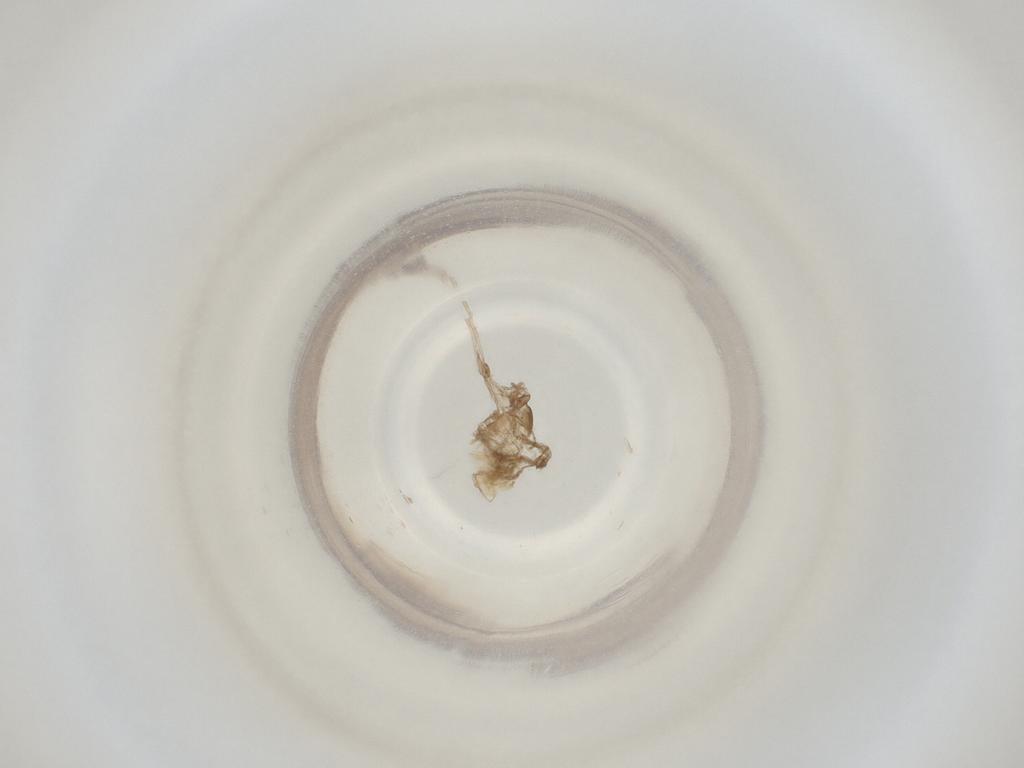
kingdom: Animalia
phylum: Arthropoda
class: Insecta
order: Diptera
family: Cecidomyiidae
